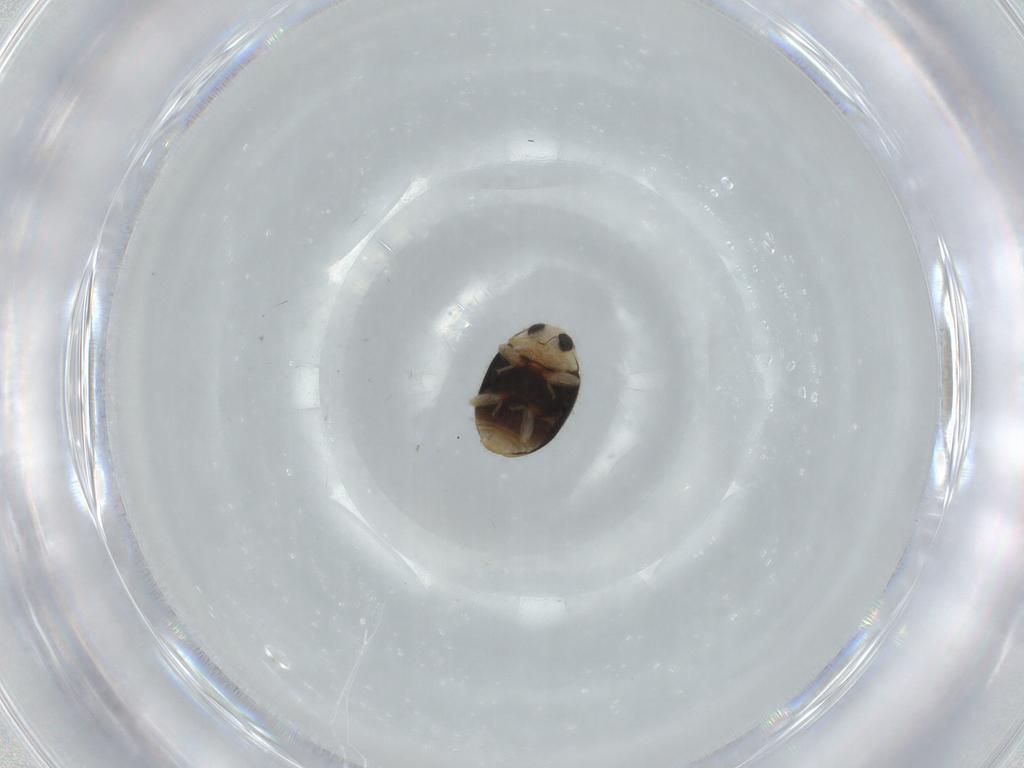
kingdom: Animalia
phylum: Arthropoda
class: Insecta
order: Coleoptera
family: Coccinellidae
